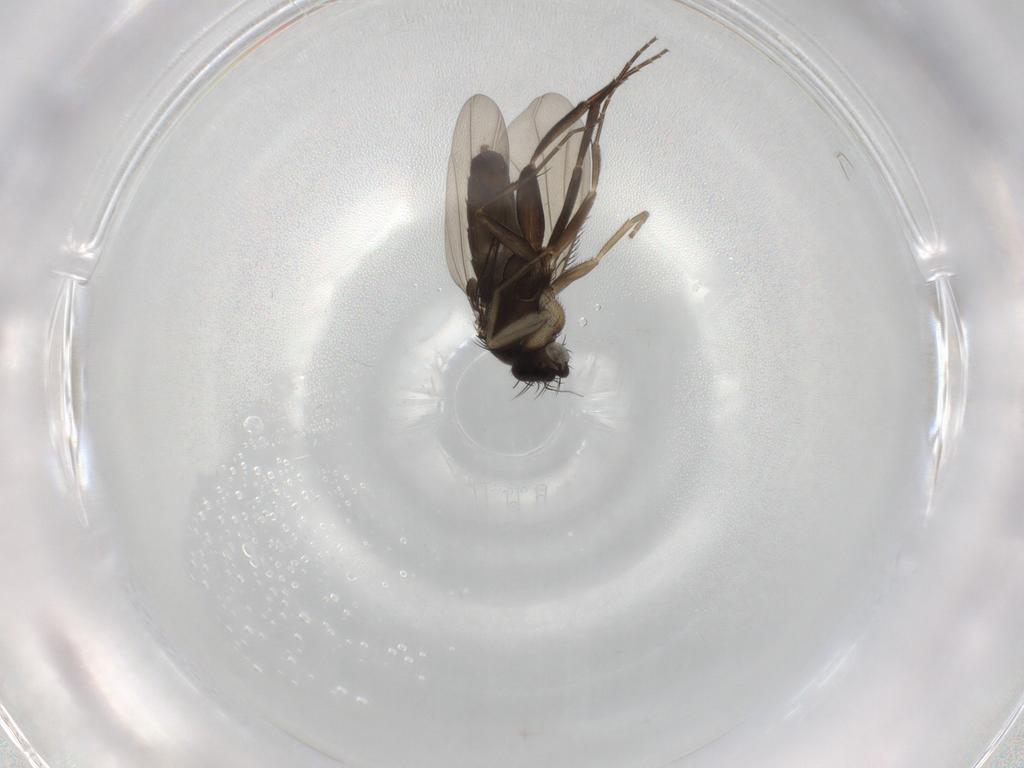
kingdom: Animalia
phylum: Arthropoda
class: Insecta
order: Diptera
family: Phoridae
